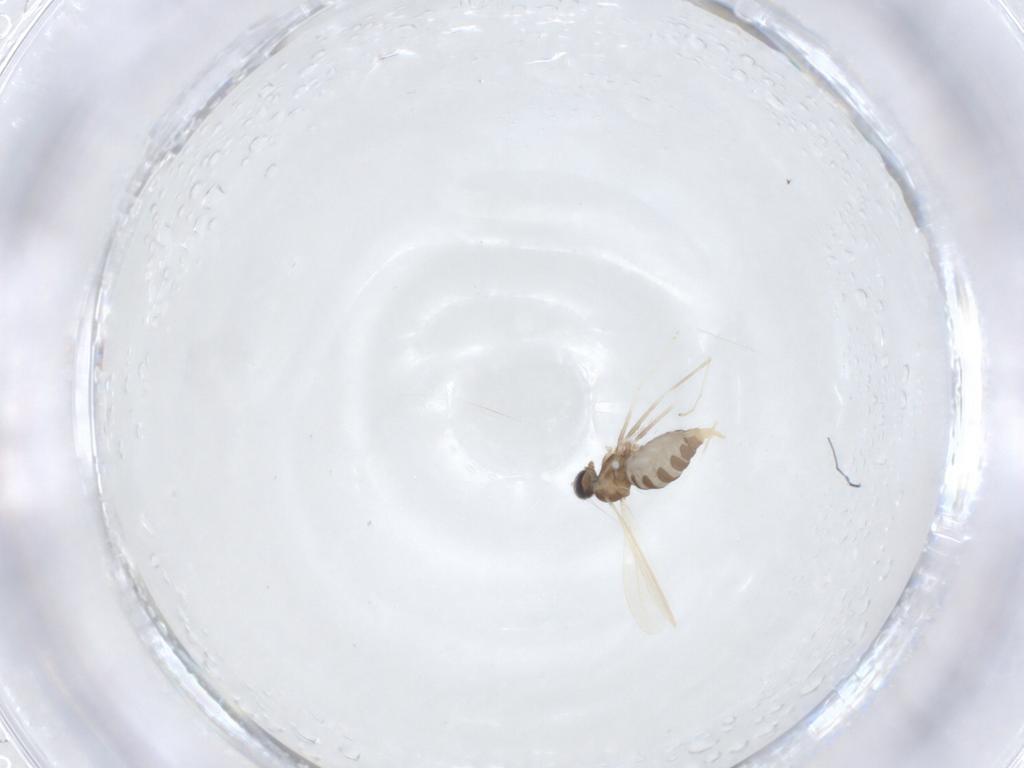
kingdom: Animalia
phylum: Arthropoda
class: Insecta
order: Diptera
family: Cecidomyiidae
